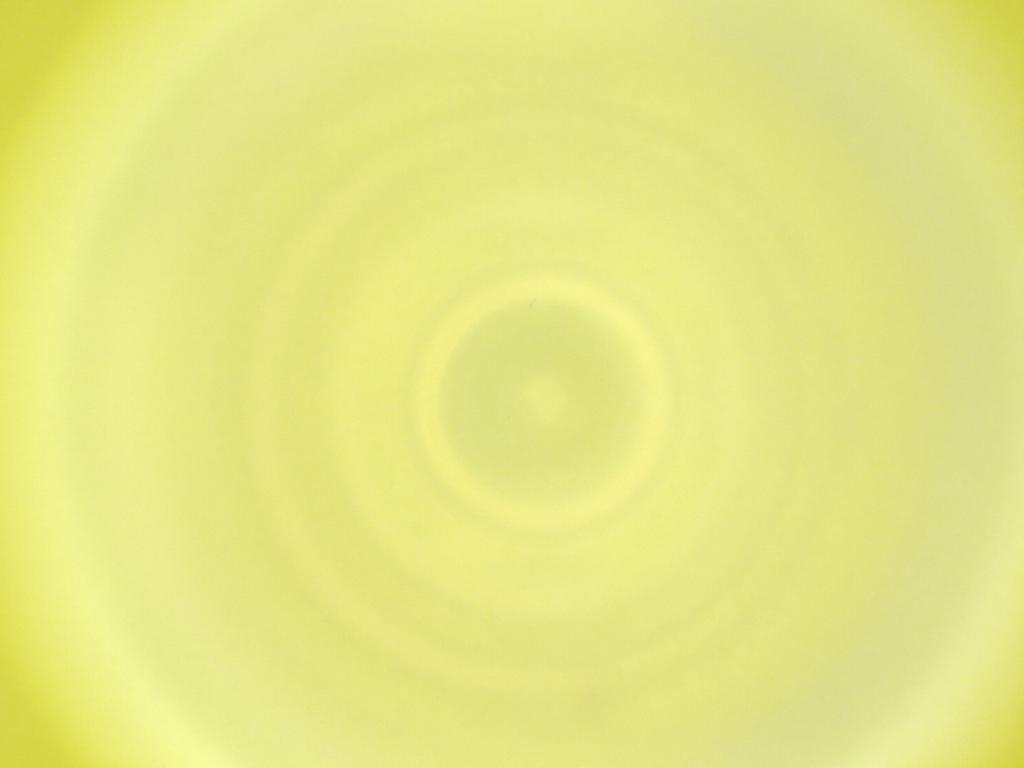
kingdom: Animalia
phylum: Arthropoda
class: Insecta
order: Diptera
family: Cecidomyiidae
